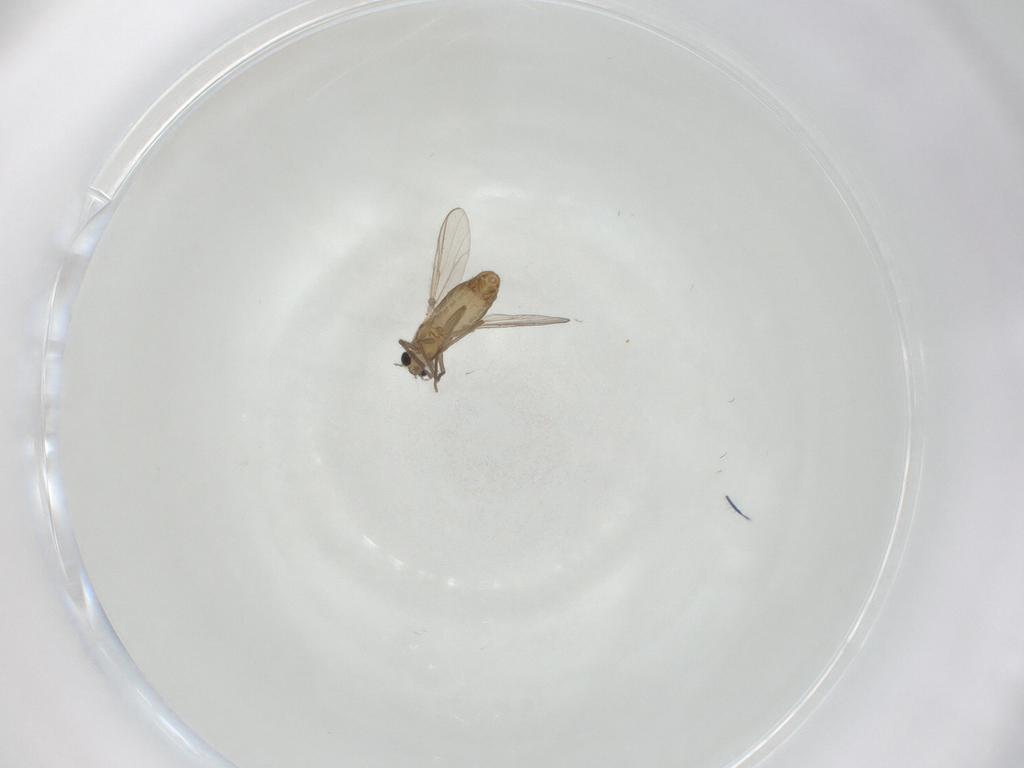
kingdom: Animalia
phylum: Arthropoda
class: Insecta
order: Diptera
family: Chironomidae
